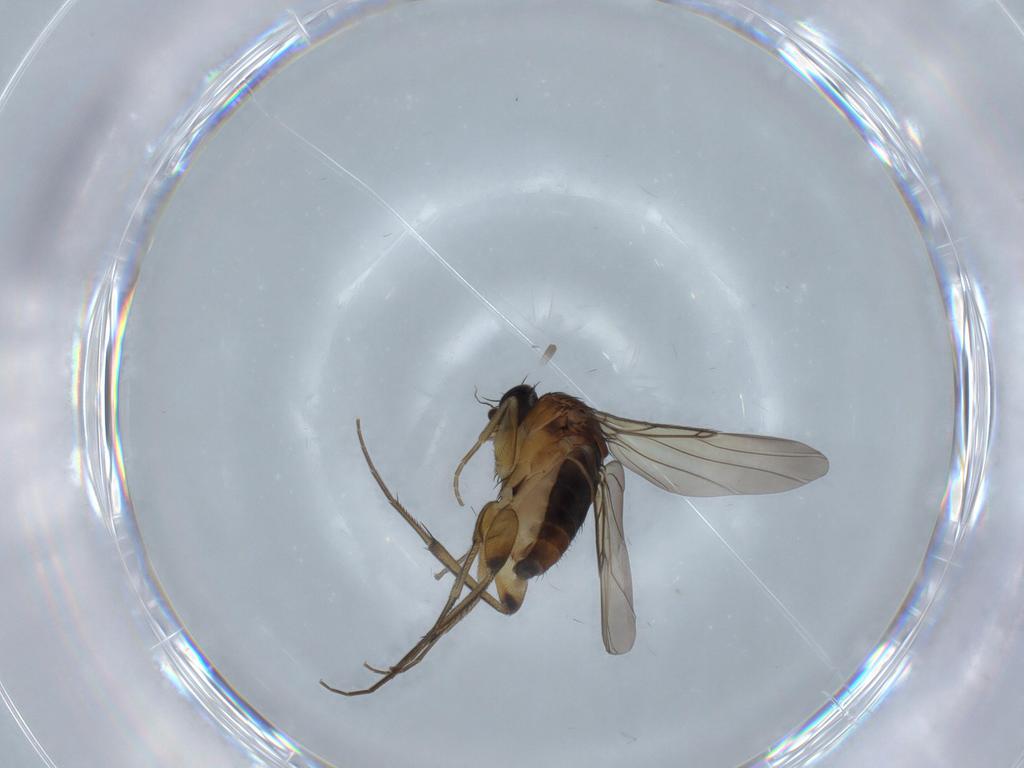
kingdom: Animalia
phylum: Arthropoda
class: Insecta
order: Diptera
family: Phoridae
